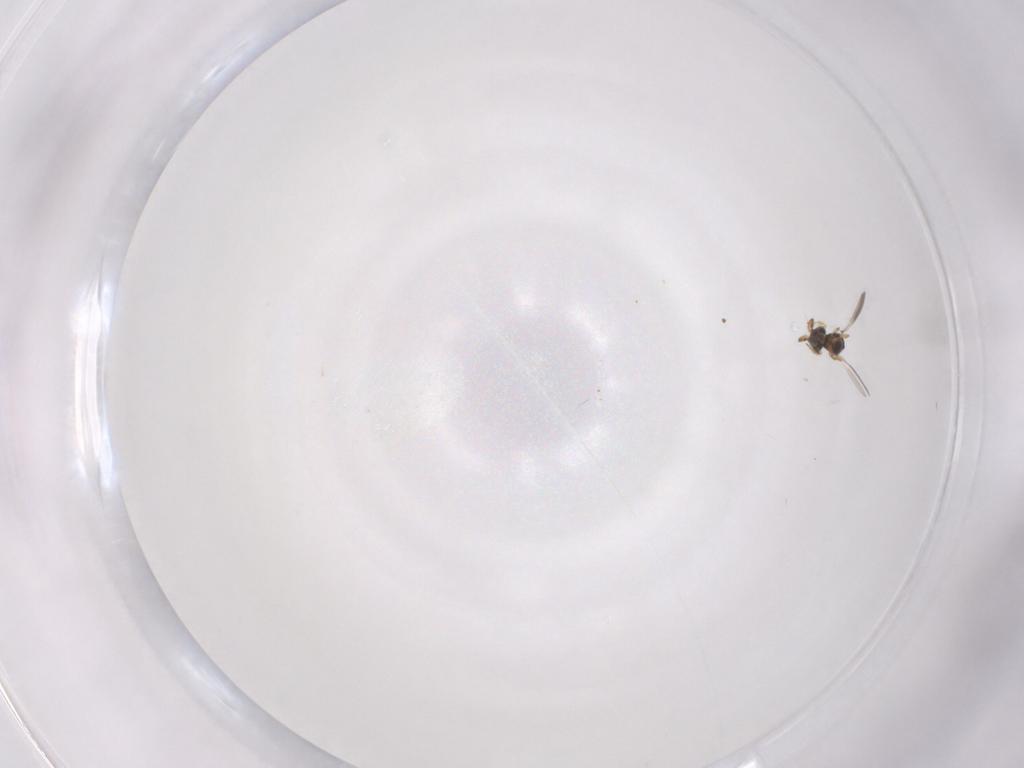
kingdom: Animalia
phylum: Arthropoda
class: Insecta
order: Hymenoptera
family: Platygastridae
